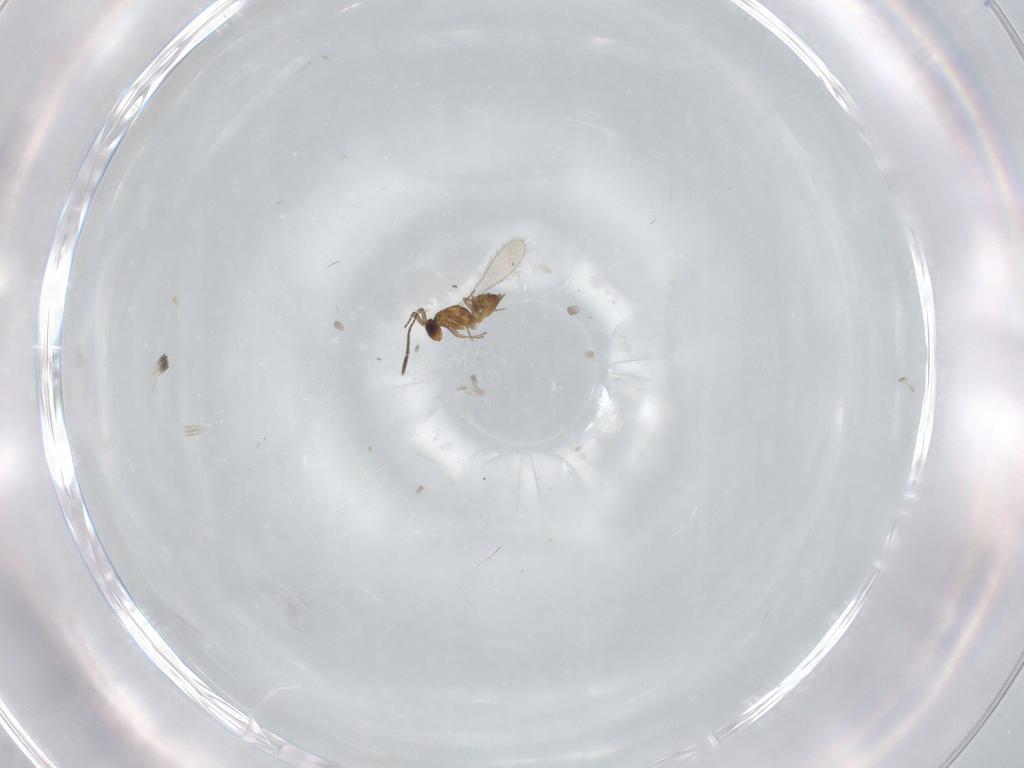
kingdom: Animalia
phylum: Arthropoda
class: Insecta
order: Hymenoptera
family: Mymaridae
